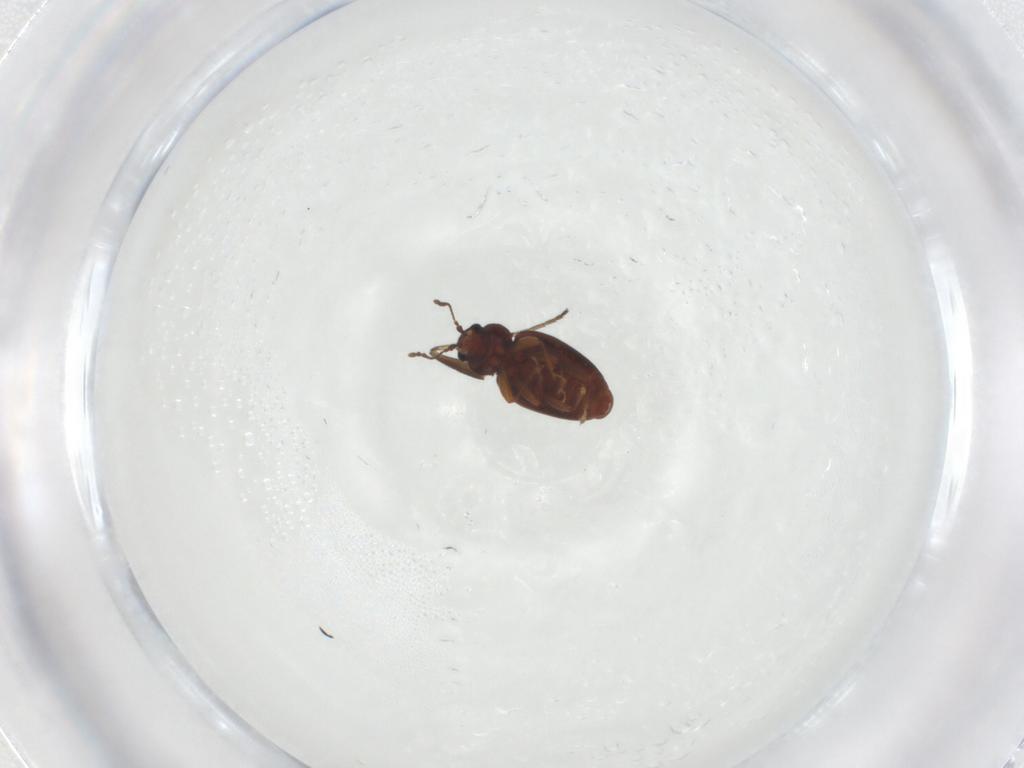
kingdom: Animalia
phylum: Arthropoda
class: Insecta
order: Coleoptera
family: Latridiidae
